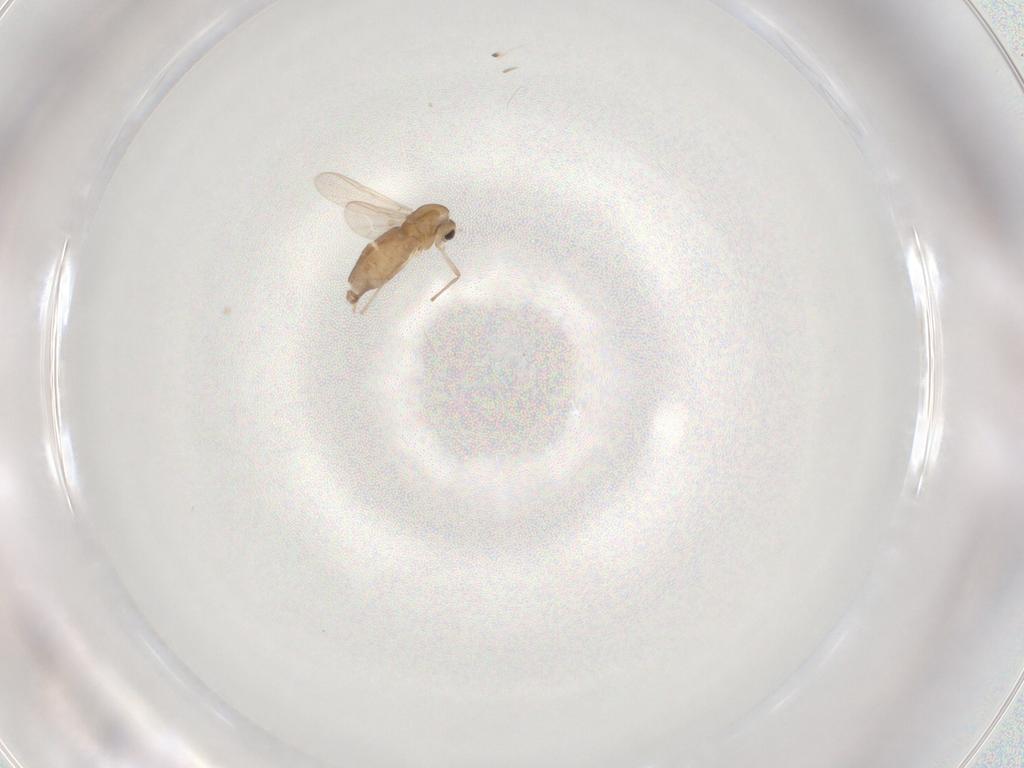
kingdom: Animalia
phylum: Arthropoda
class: Insecta
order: Diptera
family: Chironomidae
